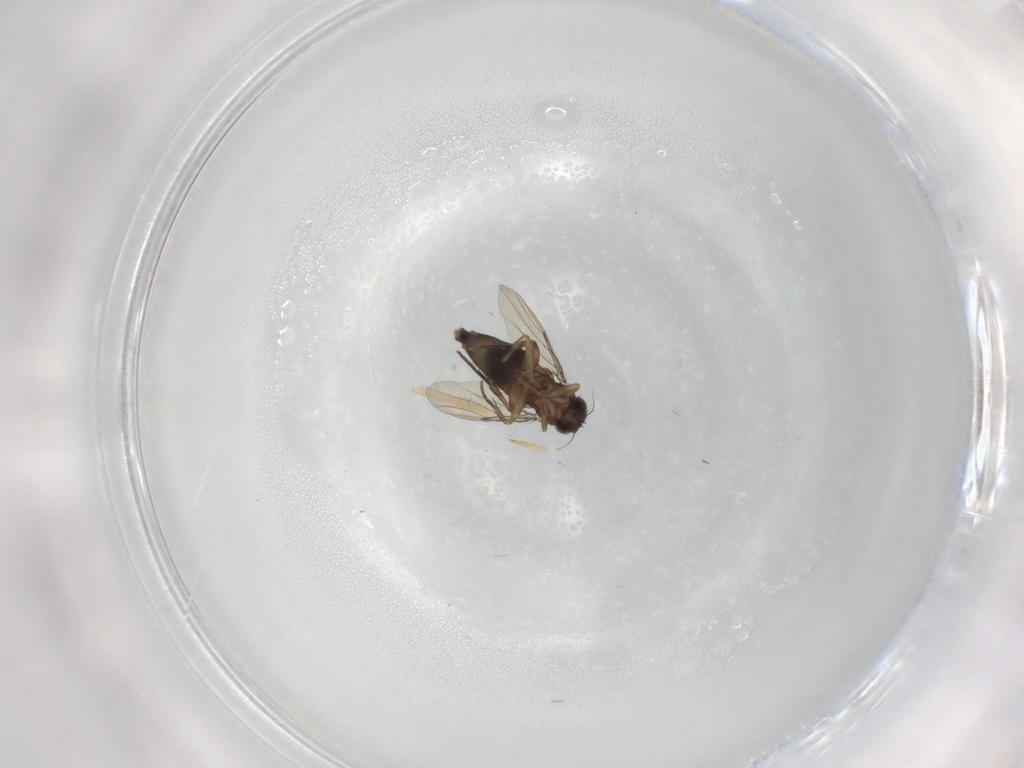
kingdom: Animalia
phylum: Arthropoda
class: Insecta
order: Diptera
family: Phoridae
